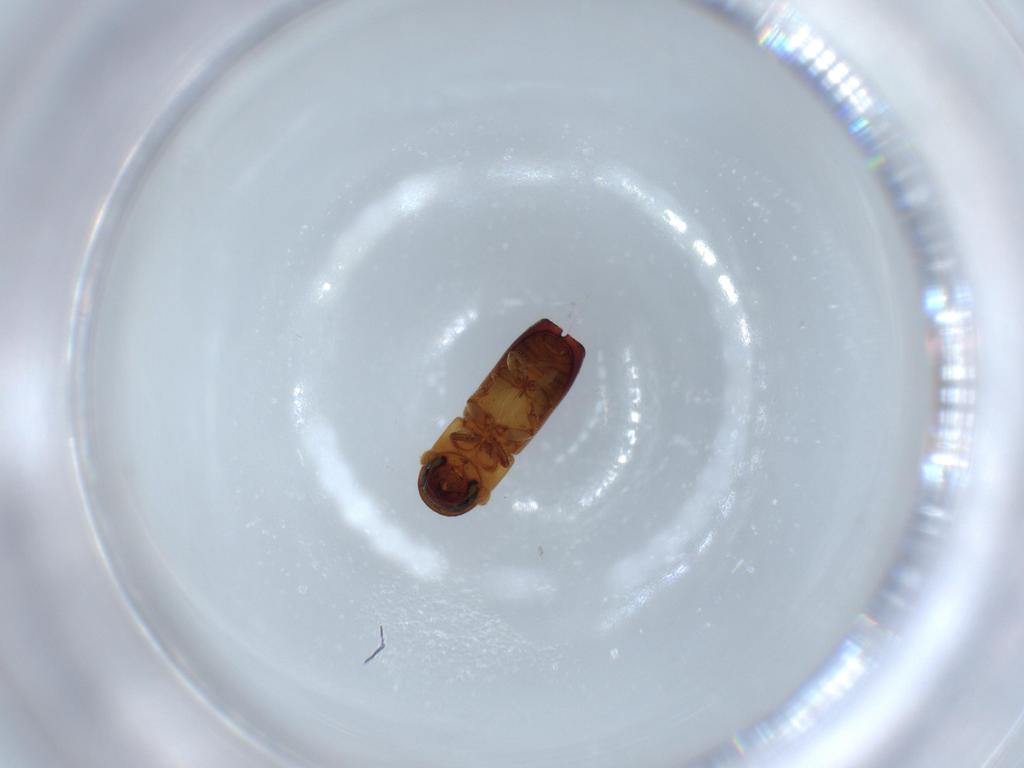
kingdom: Animalia
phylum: Arthropoda
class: Insecta
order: Coleoptera
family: Curculionidae
